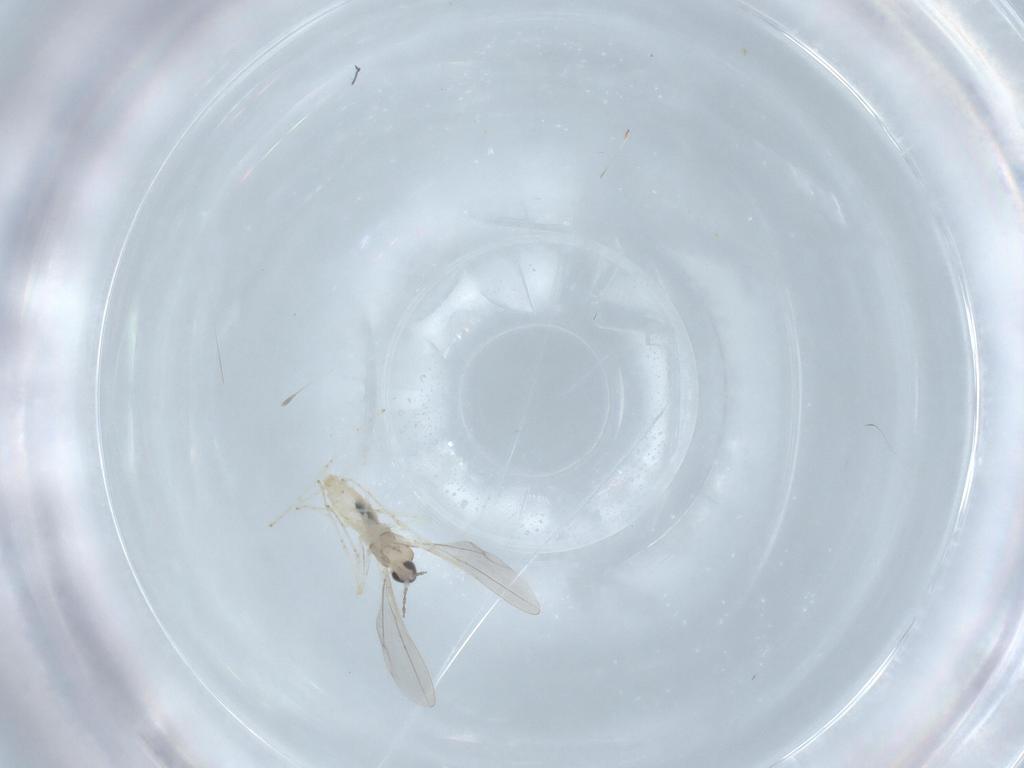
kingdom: Animalia
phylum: Arthropoda
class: Insecta
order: Diptera
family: Cecidomyiidae
